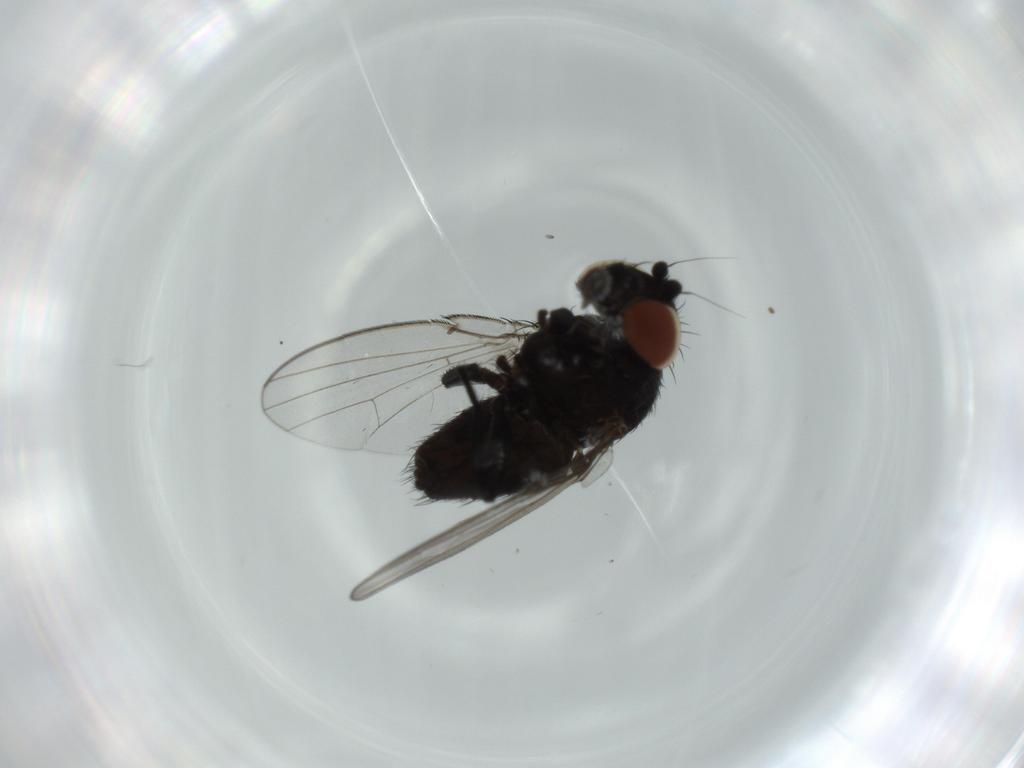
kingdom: Animalia
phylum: Arthropoda
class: Insecta
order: Diptera
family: Milichiidae
